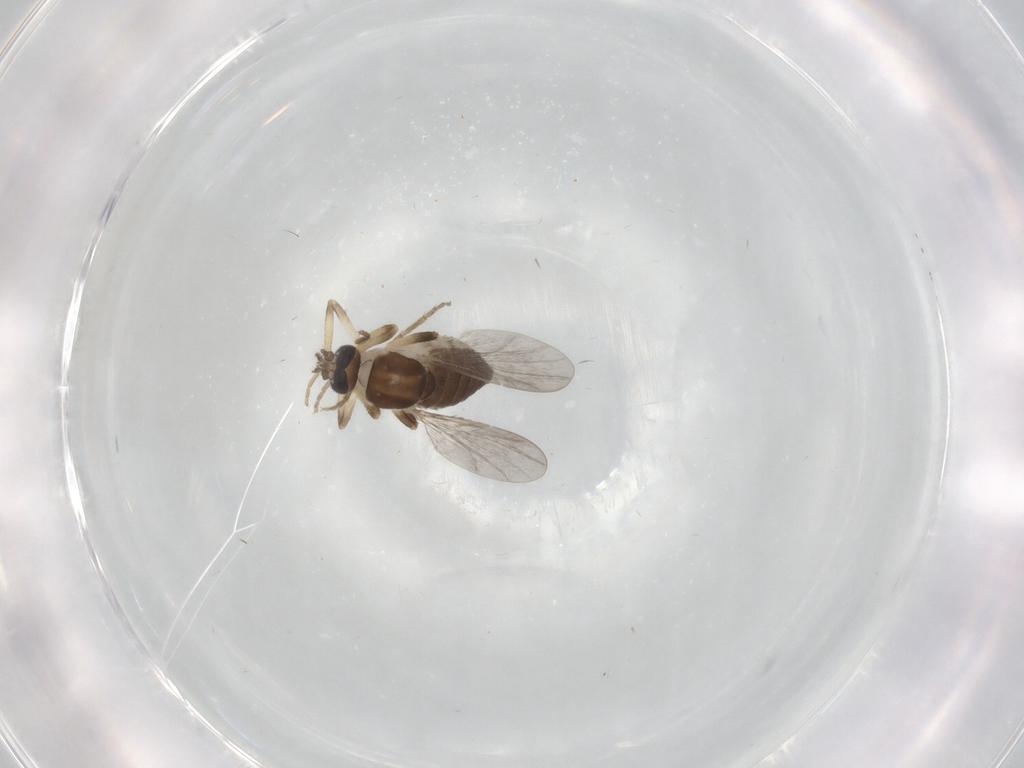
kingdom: Animalia
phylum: Arthropoda
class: Insecta
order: Diptera
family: Ceratopogonidae
